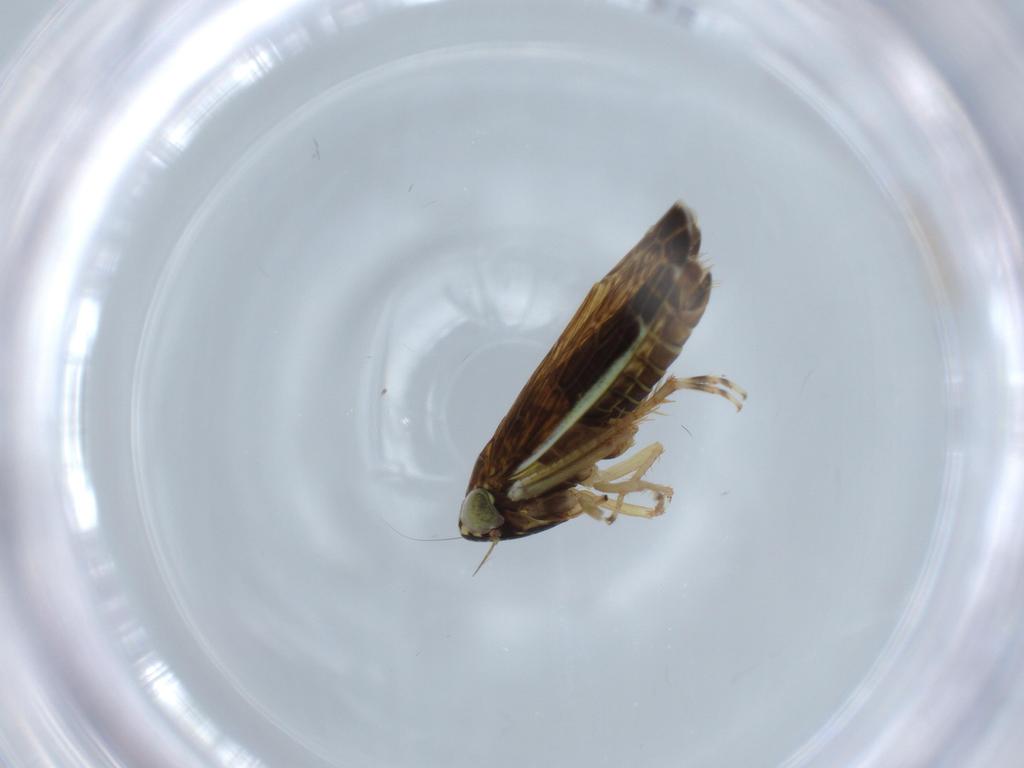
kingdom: Animalia
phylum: Arthropoda
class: Insecta
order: Hemiptera
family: Cicadellidae
